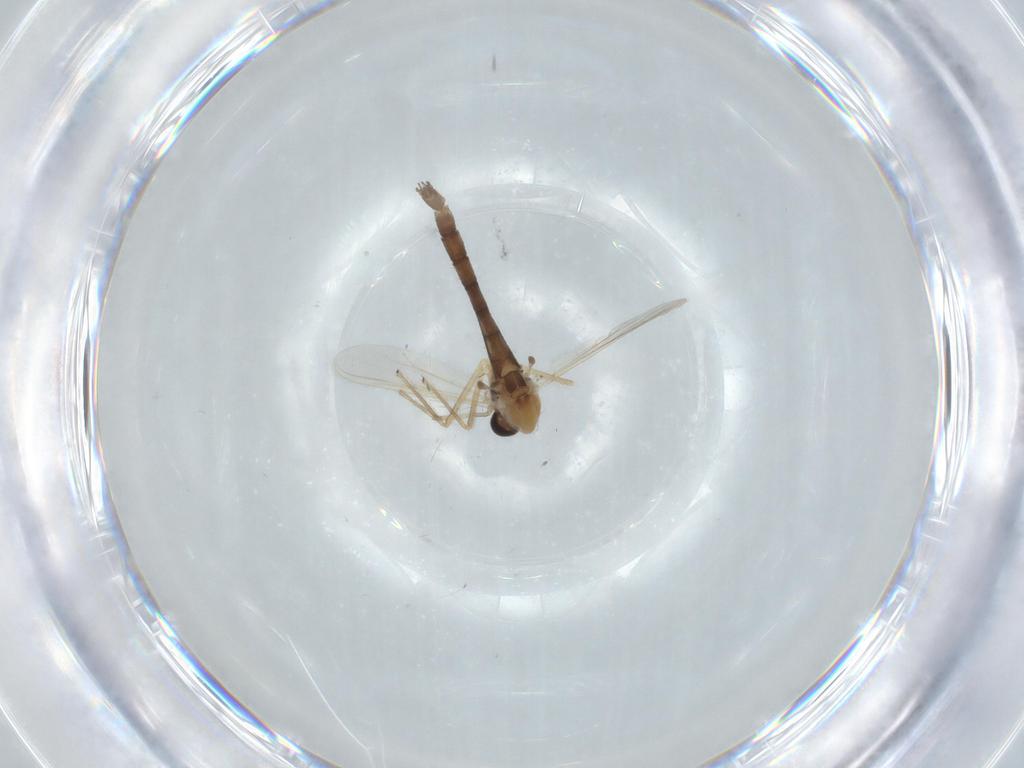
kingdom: Animalia
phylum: Arthropoda
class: Insecta
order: Diptera
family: Chironomidae
